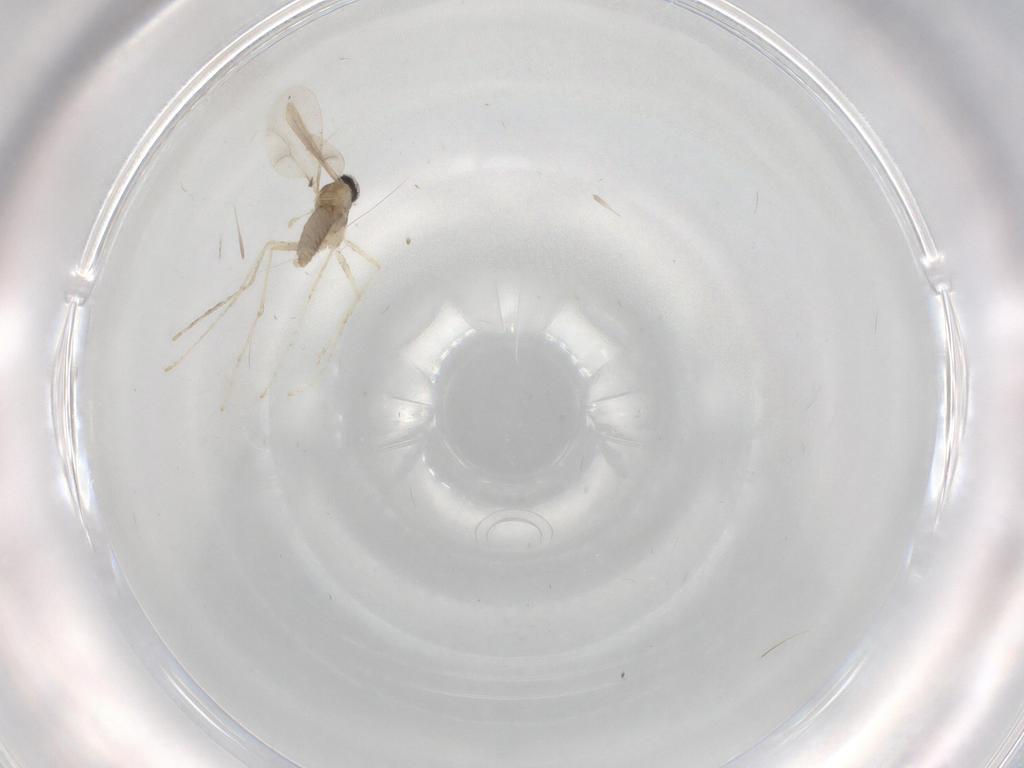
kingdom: Animalia
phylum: Arthropoda
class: Insecta
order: Diptera
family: Cecidomyiidae
